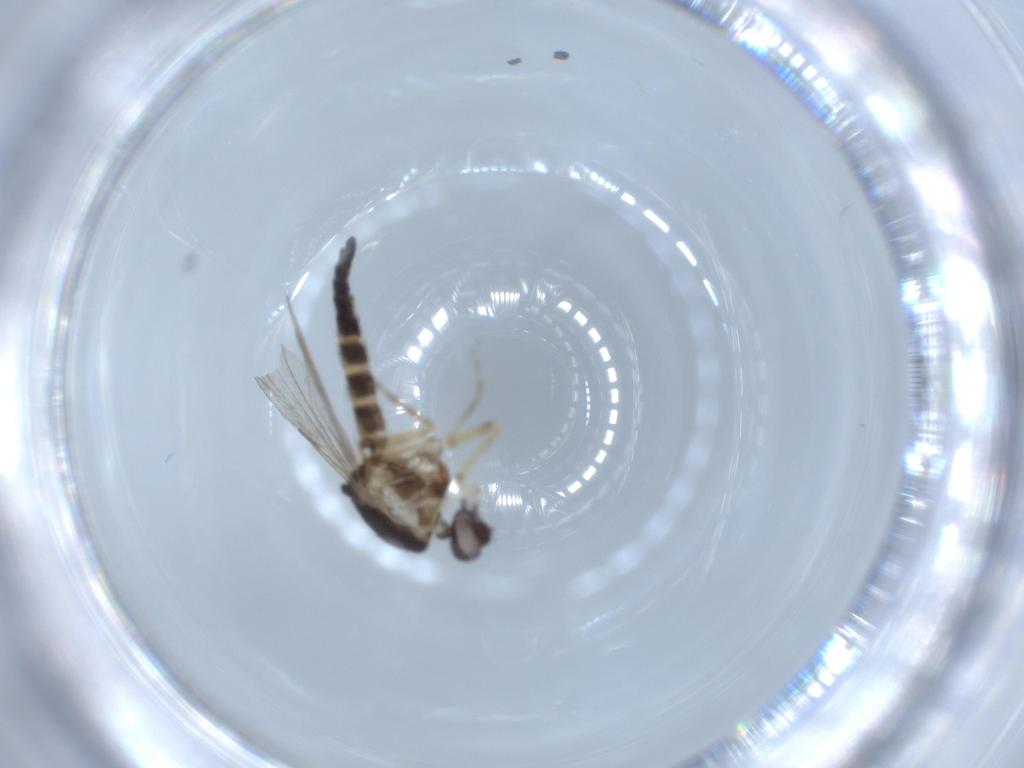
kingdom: Animalia
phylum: Arthropoda
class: Insecta
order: Diptera
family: Ceratopogonidae
